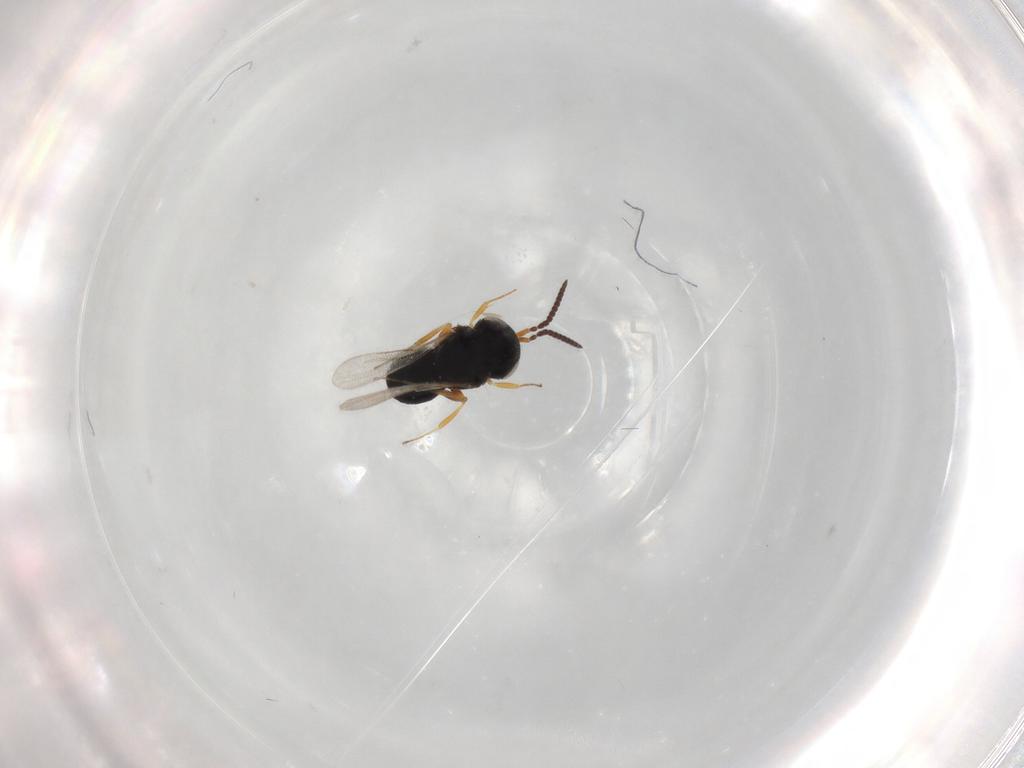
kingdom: Animalia
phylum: Arthropoda
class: Insecta
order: Hymenoptera
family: Scelionidae
